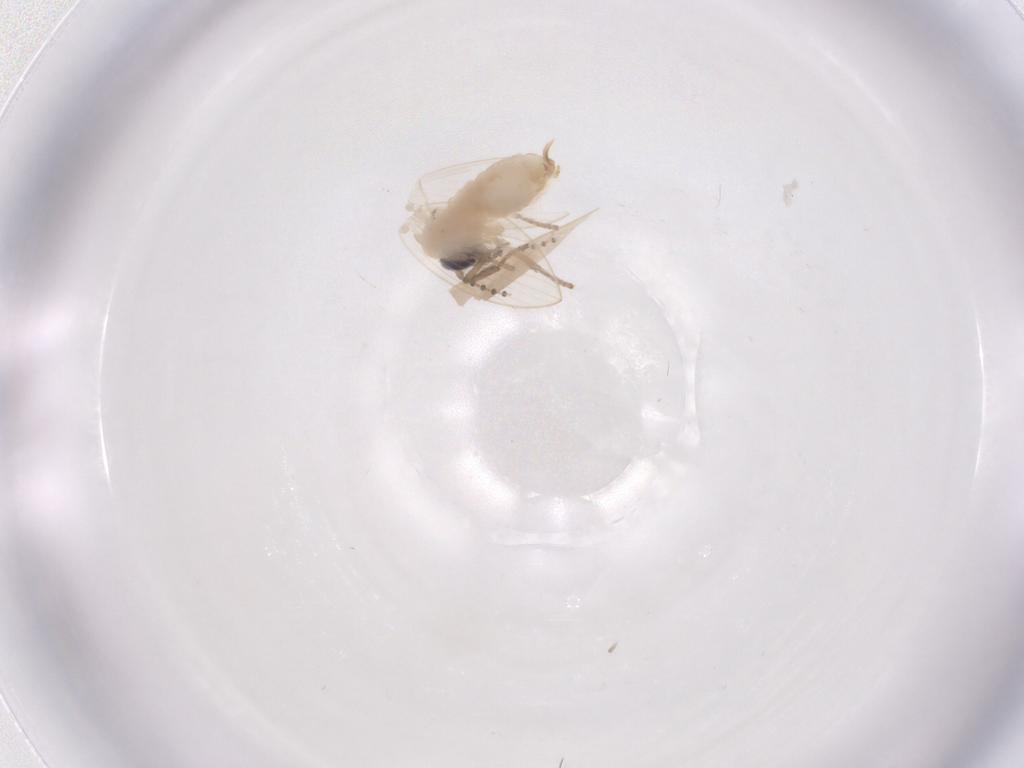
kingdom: Animalia
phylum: Arthropoda
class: Insecta
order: Diptera
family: Psychodidae
